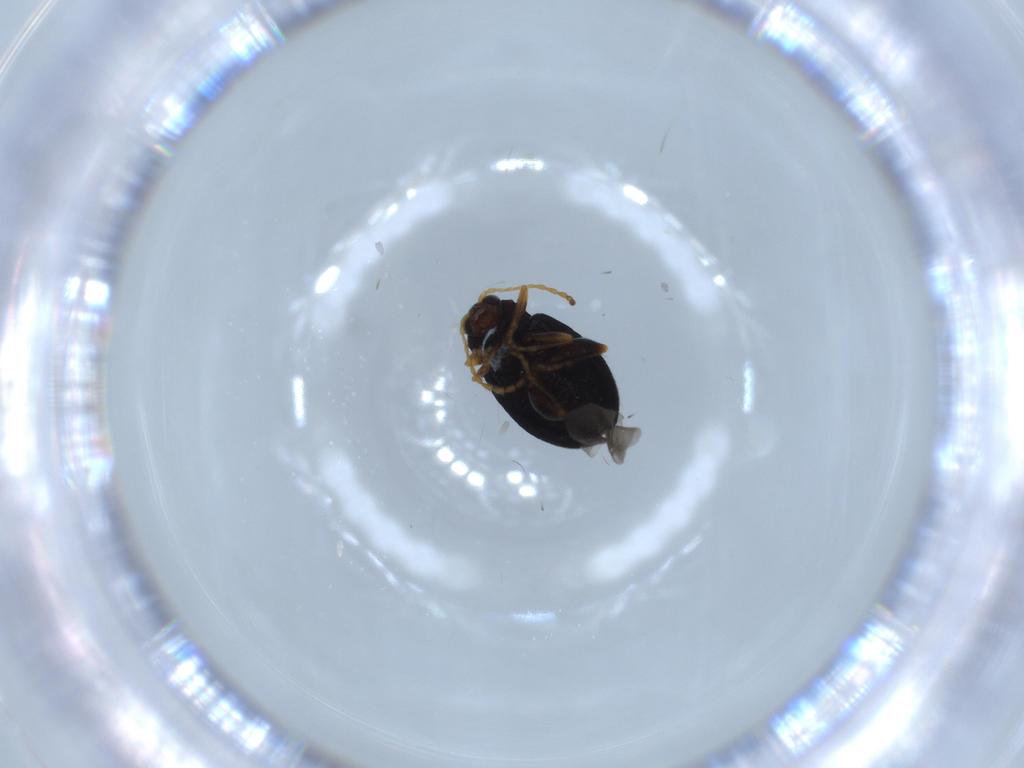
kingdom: Animalia
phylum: Arthropoda
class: Insecta
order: Coleoptera
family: Chrysomelidae
